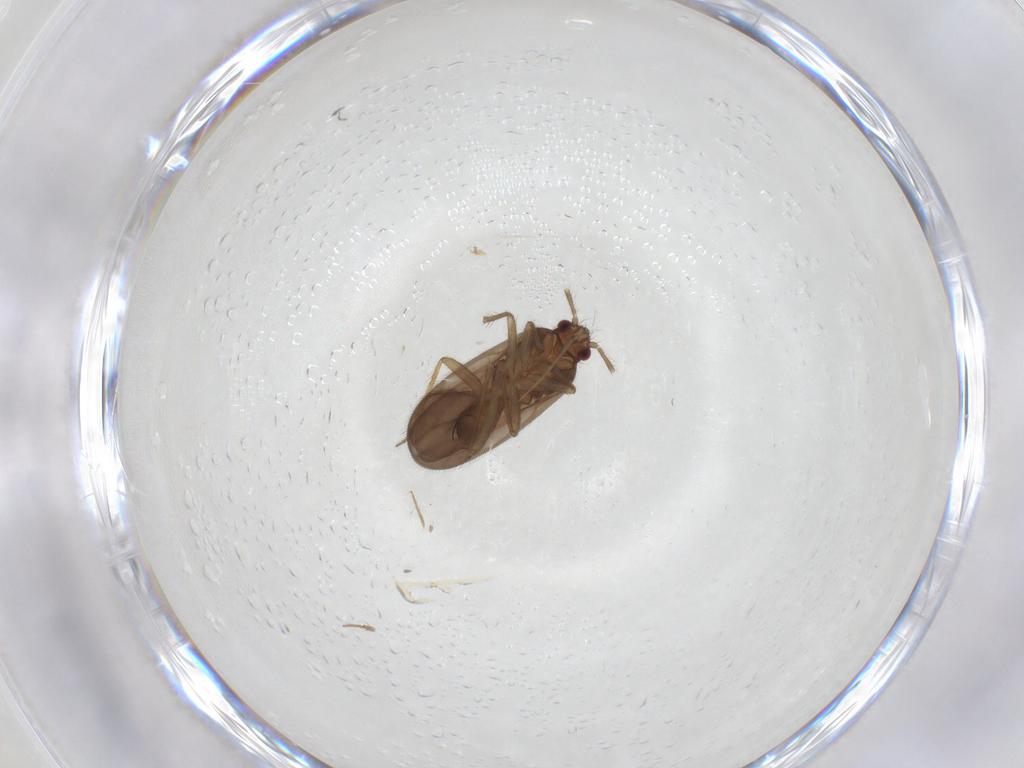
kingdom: Animalia
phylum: Arthropoda
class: Insecta
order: Hemiptera
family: Ceratocombidae
